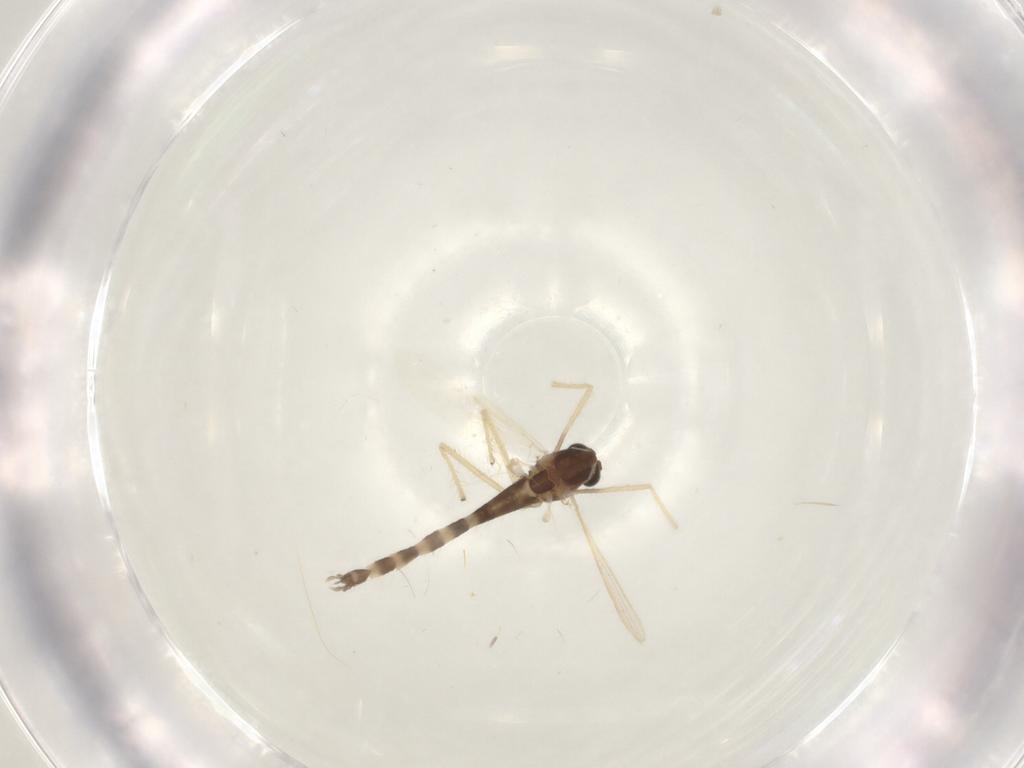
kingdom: Animalia
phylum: Arthropoda
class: Insecta
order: Diptera
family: Chironomidae
